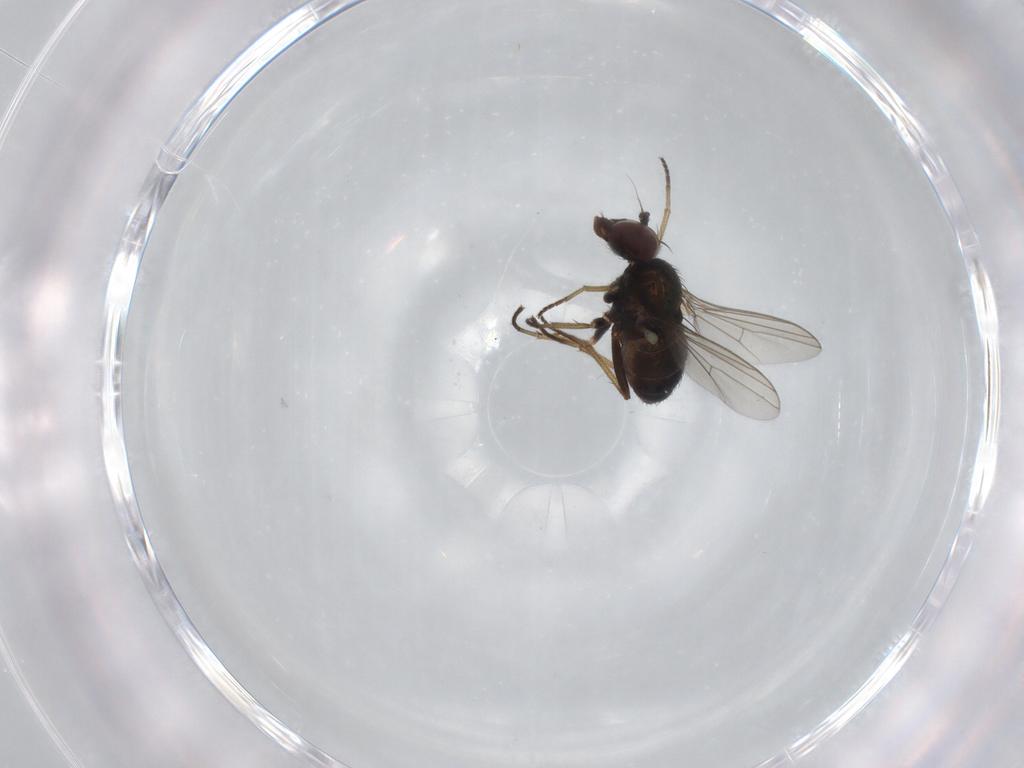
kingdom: Animalia
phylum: Arthropoda
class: Insecta
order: Diptera
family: Dolichopodidae
